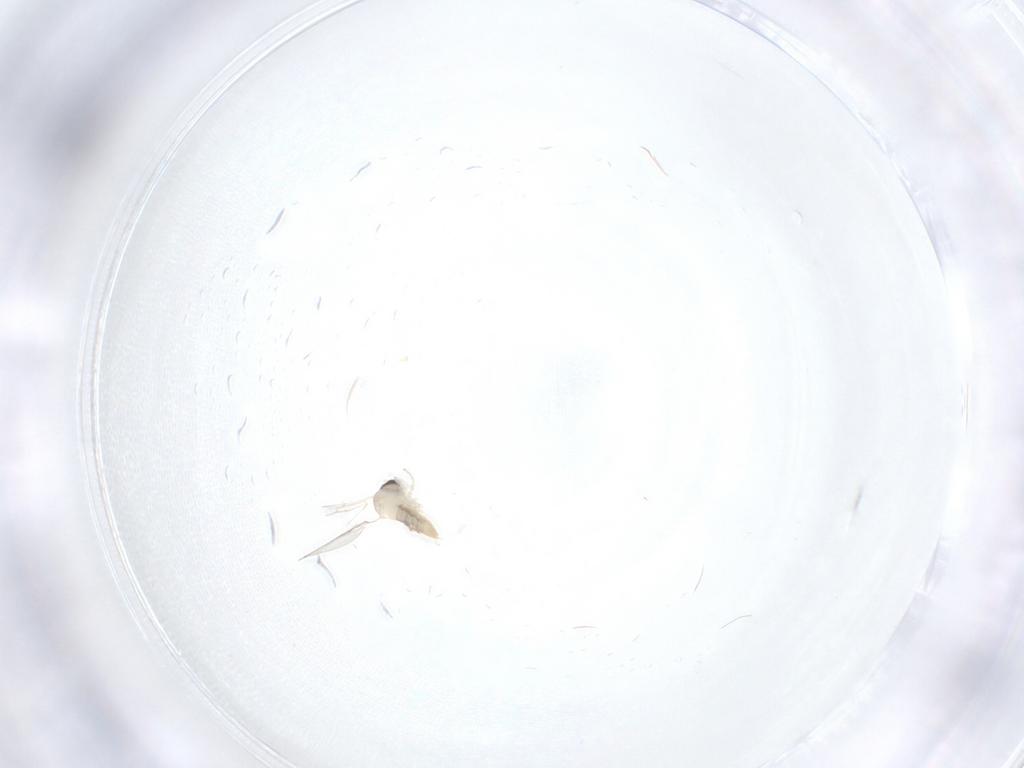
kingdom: Animalia
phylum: Arthropoda
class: Insecta
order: Diptera
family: Cecidomyiidae
